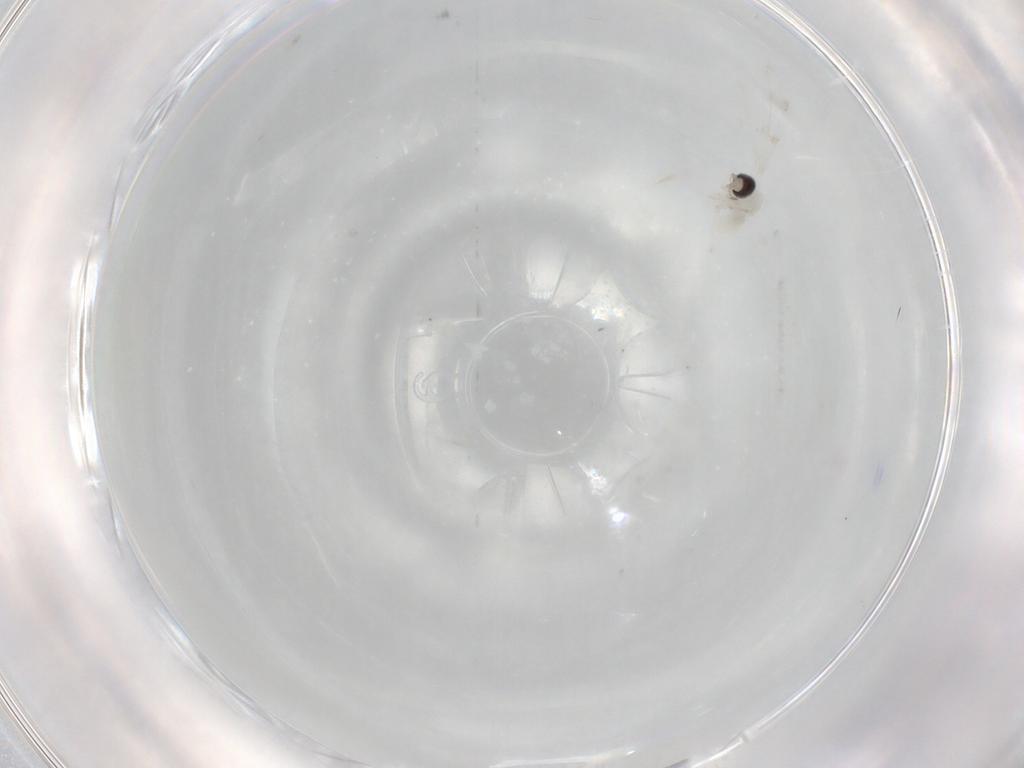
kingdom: Animalia
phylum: Arthropoda
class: Insecta
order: Diptera
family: Cecidomyiidae
